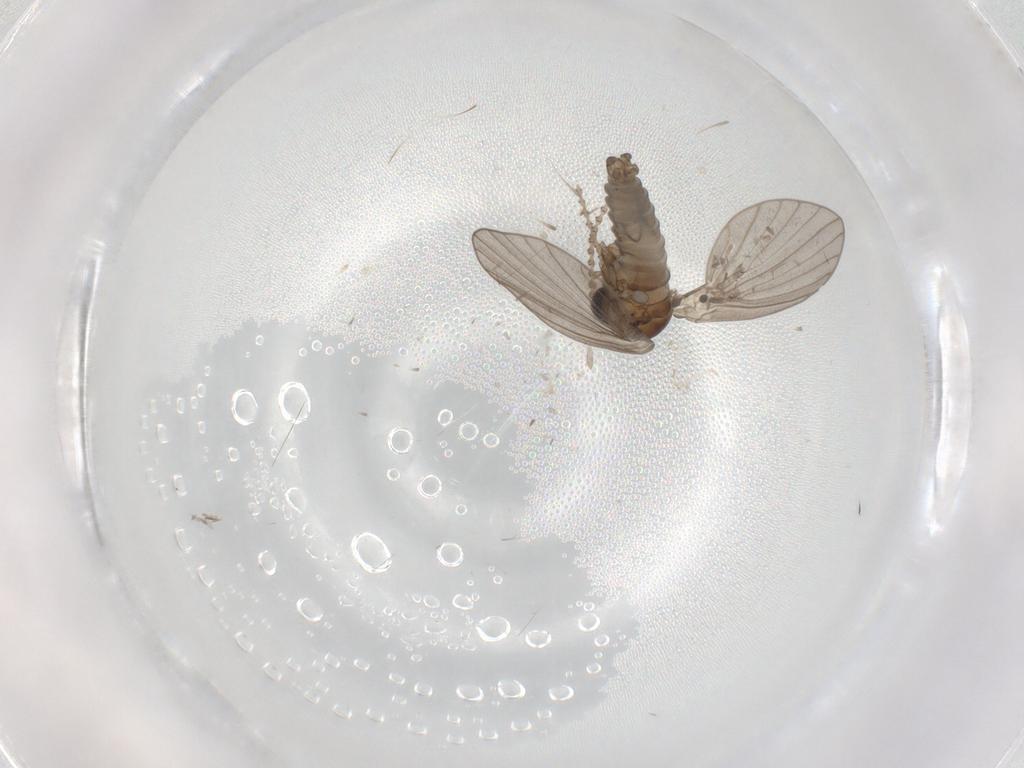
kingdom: Animalia
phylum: Arthropoda
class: Insecta
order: Diptera
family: Psychodidae
